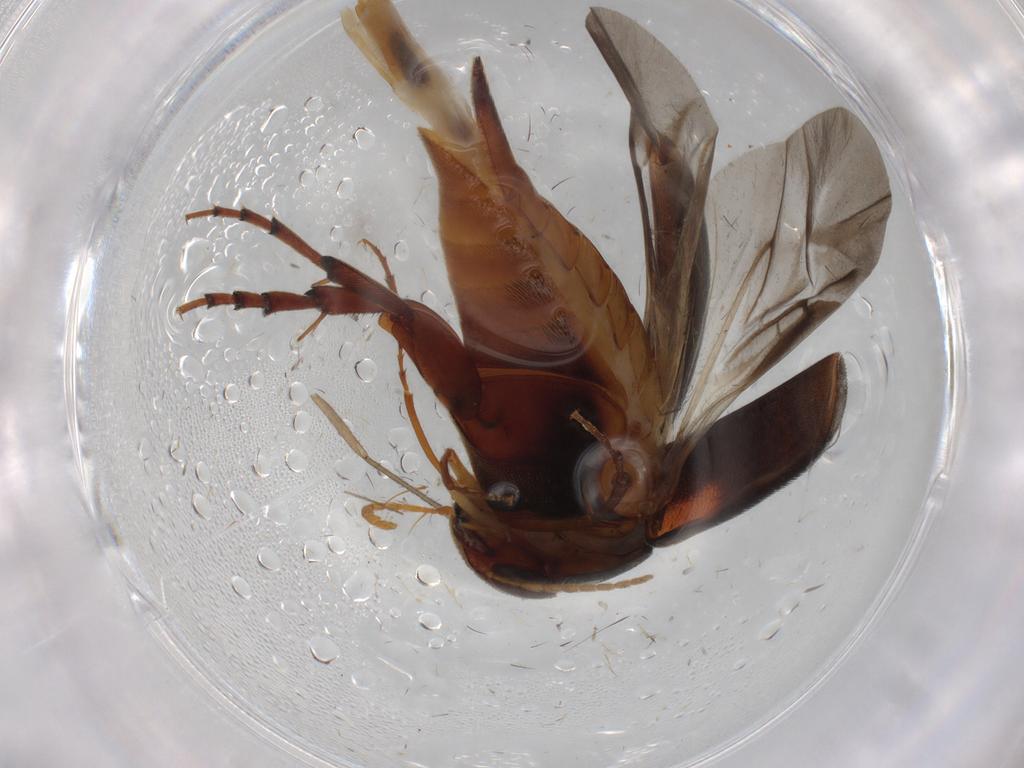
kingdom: Animalia
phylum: Arthropoda
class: Insecta
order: Coleoptera
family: Mordellidae
